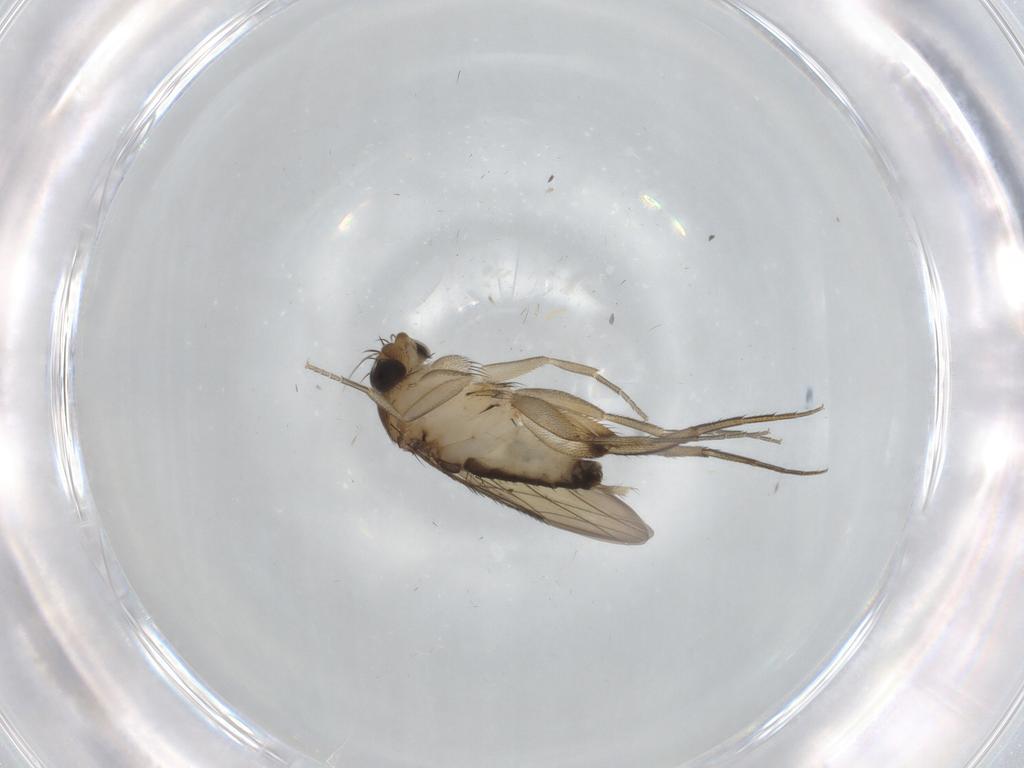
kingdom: Animalia
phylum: Arthropoda
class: Insecta
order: Diptera
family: Phoridae
